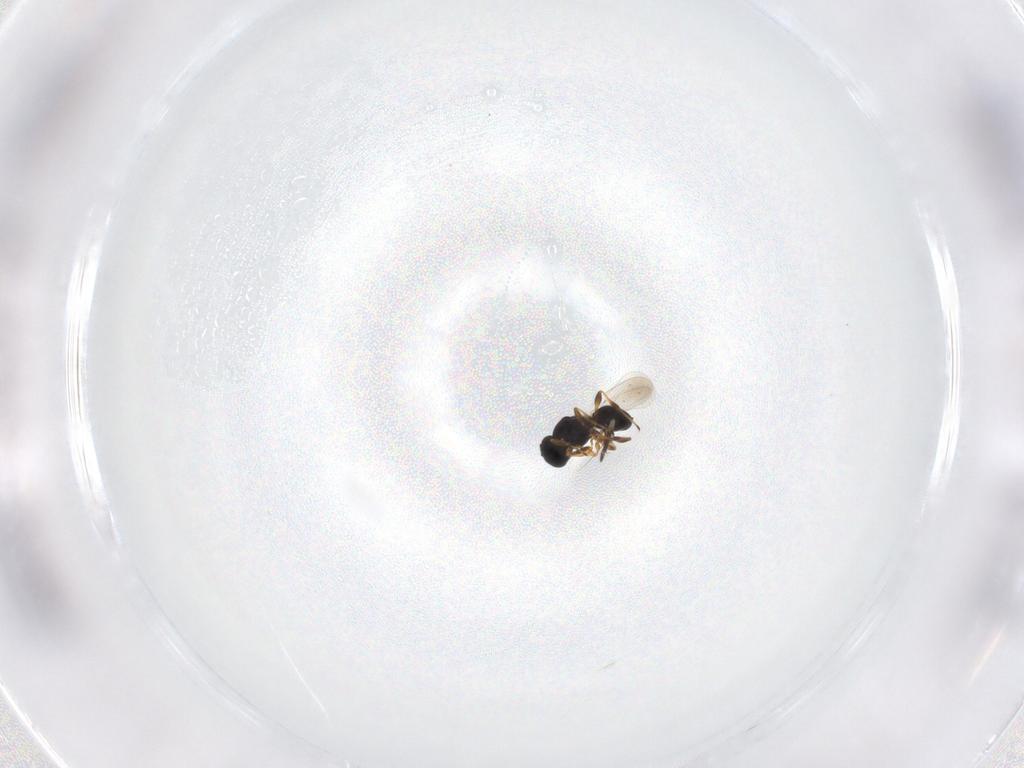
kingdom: Animalia
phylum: Arthropoda
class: Insecta
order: Hymenoptera
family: Platygastridae
